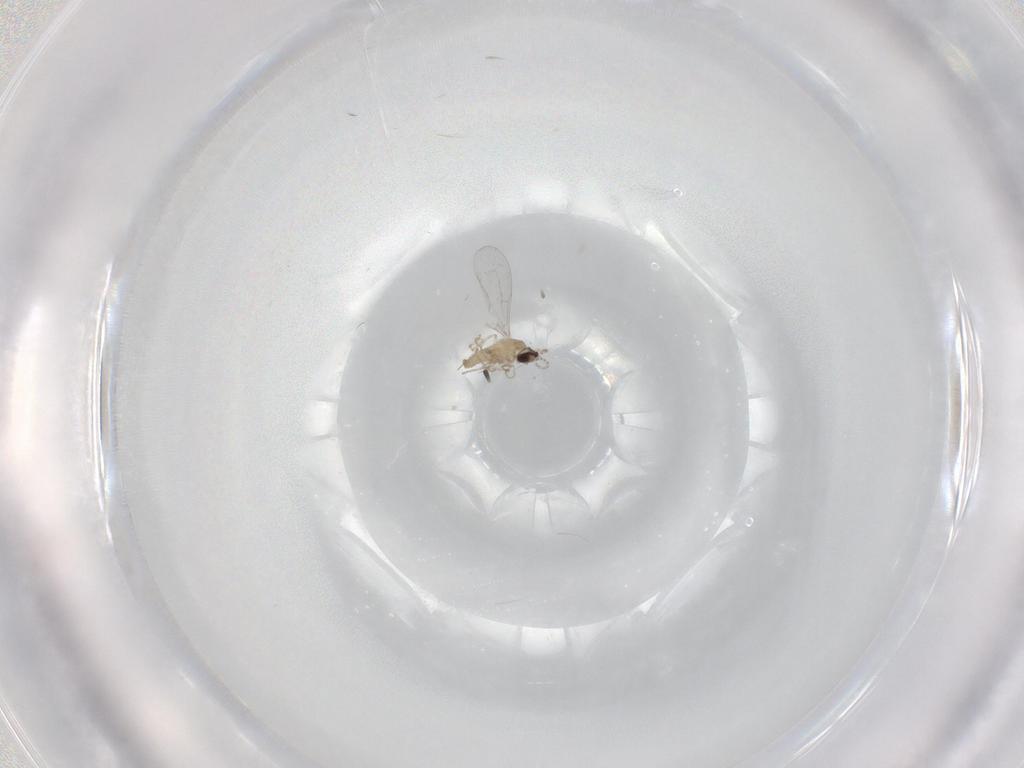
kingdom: Animalia
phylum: Arthropoda
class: Insecta
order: Diptera
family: Cecidomyiidae
